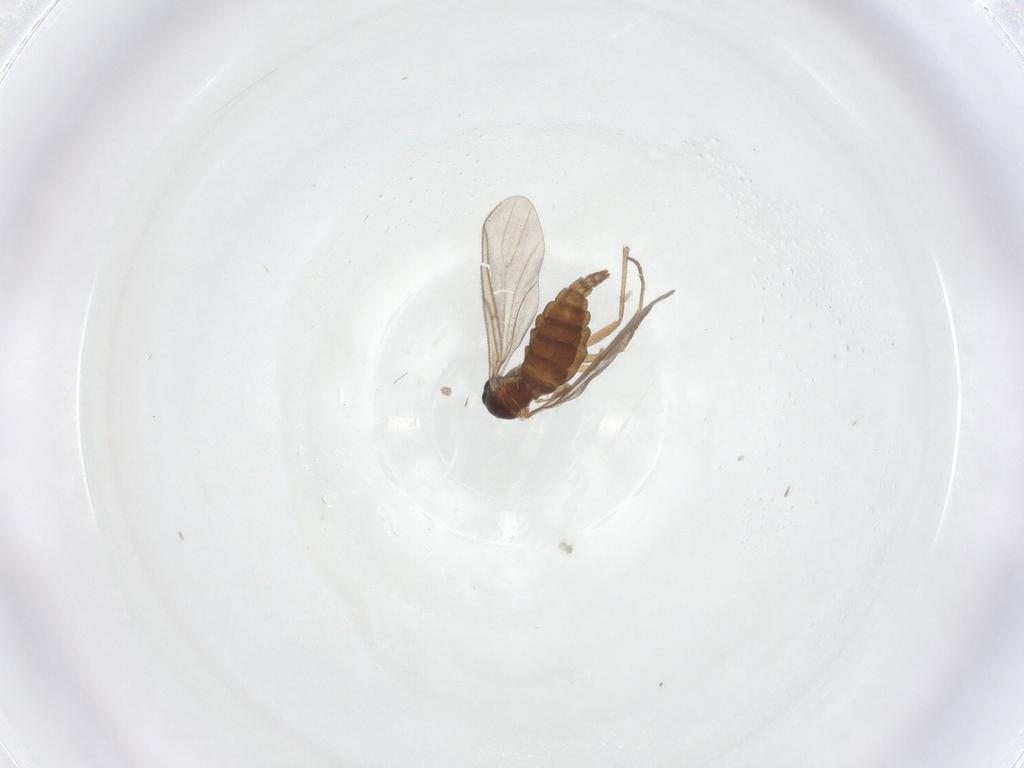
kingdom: Animalia
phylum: Arthropoda
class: Insecta
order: Diptera
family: Sciaridae
